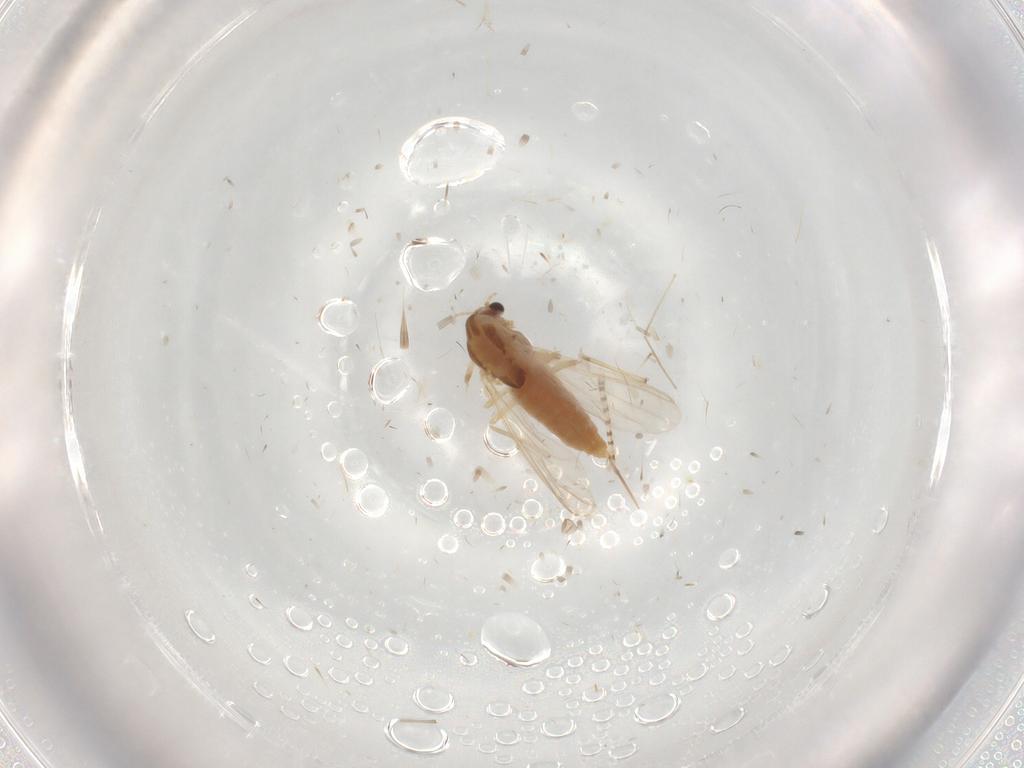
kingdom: Animalia
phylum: Arthropoda
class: Insecta
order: Diptera
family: Chironomidae
